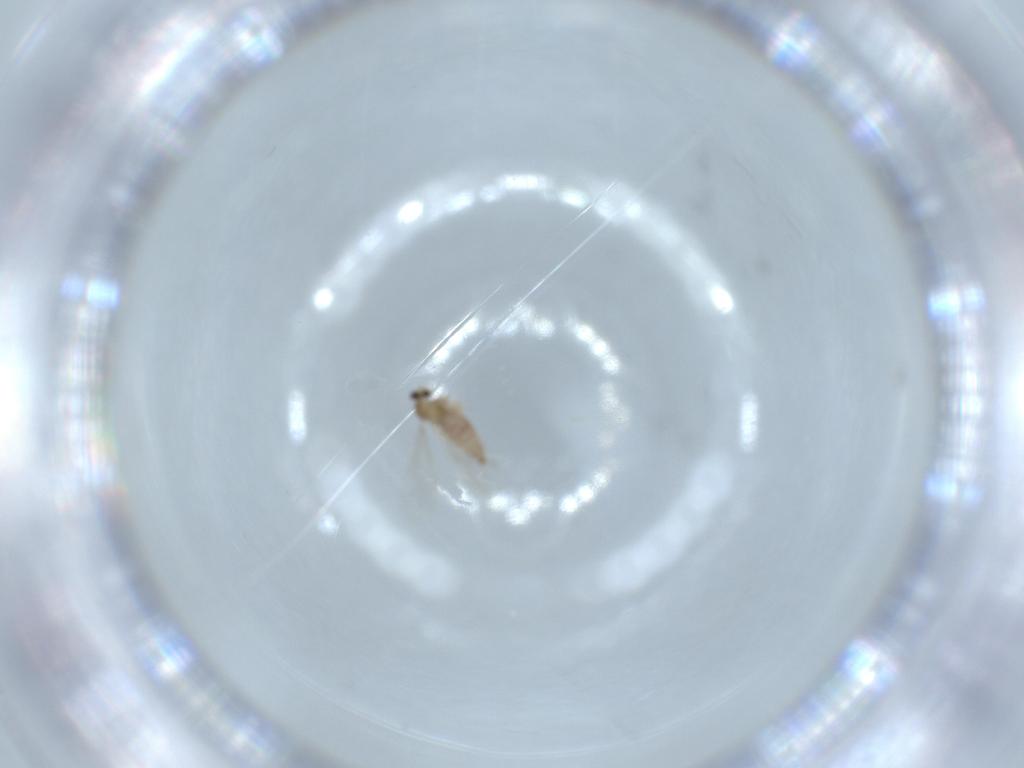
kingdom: Animalia
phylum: Arthropoda
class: Insecta
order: Diptera
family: Cecidomyiidae
